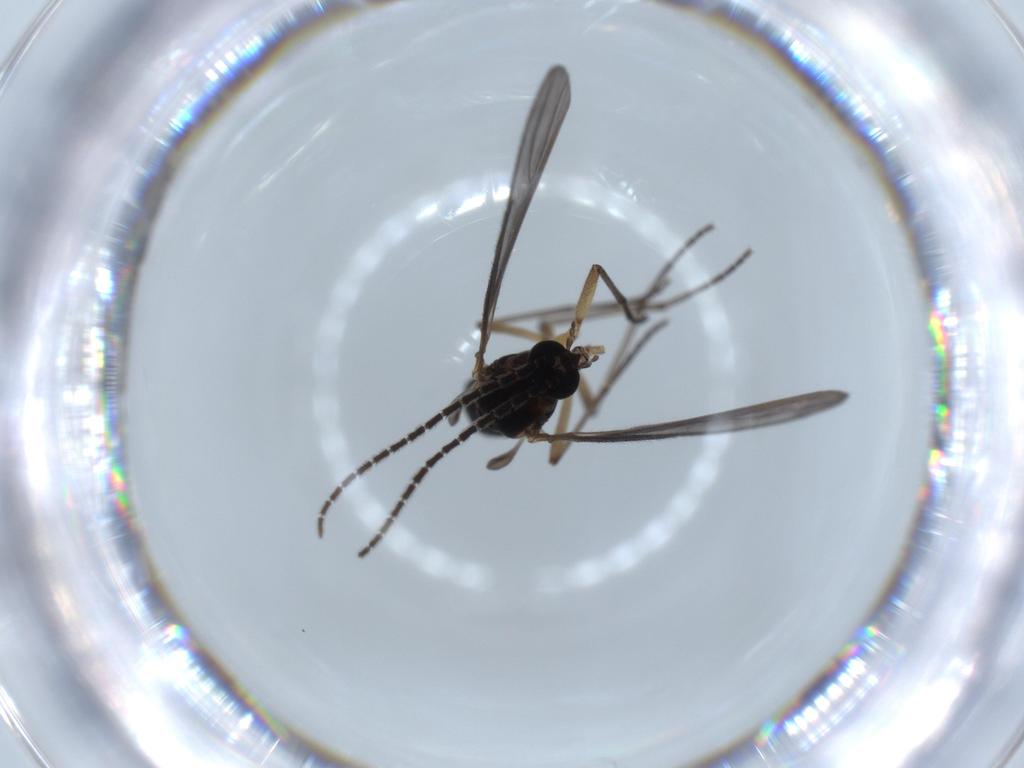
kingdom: Animalia
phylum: Arthropoda
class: Insecta
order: Diptera
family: Sciaridae
